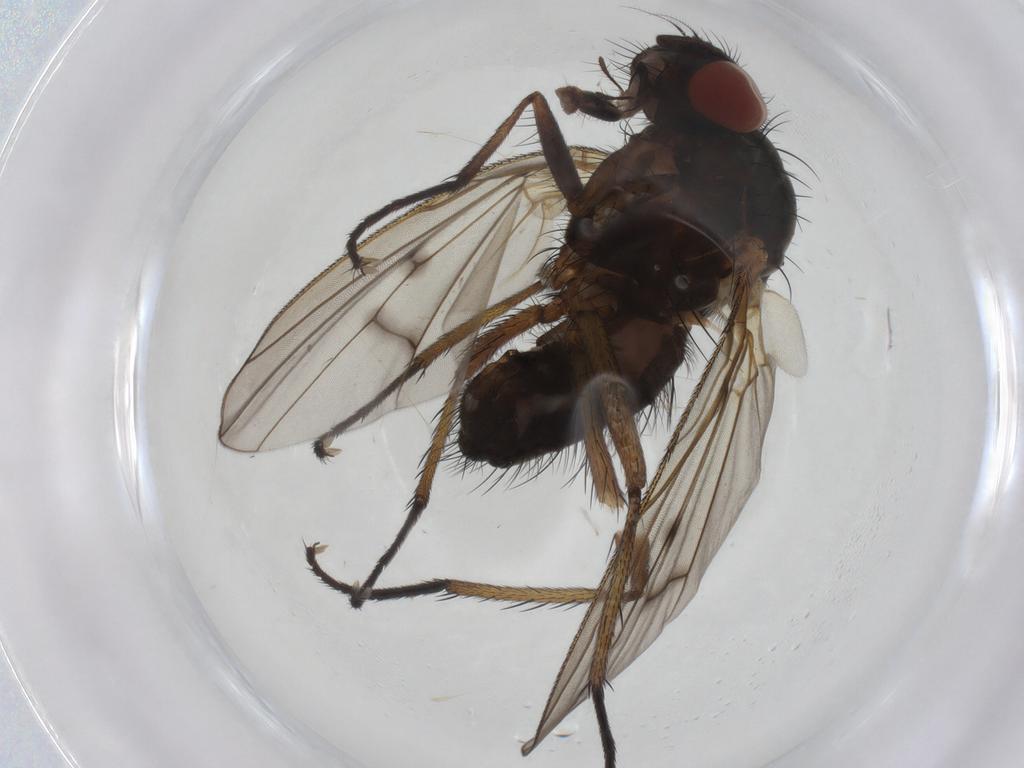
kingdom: Animalia
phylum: Arthropoda
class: Insecta
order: Diptera
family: Anthomyiidae
